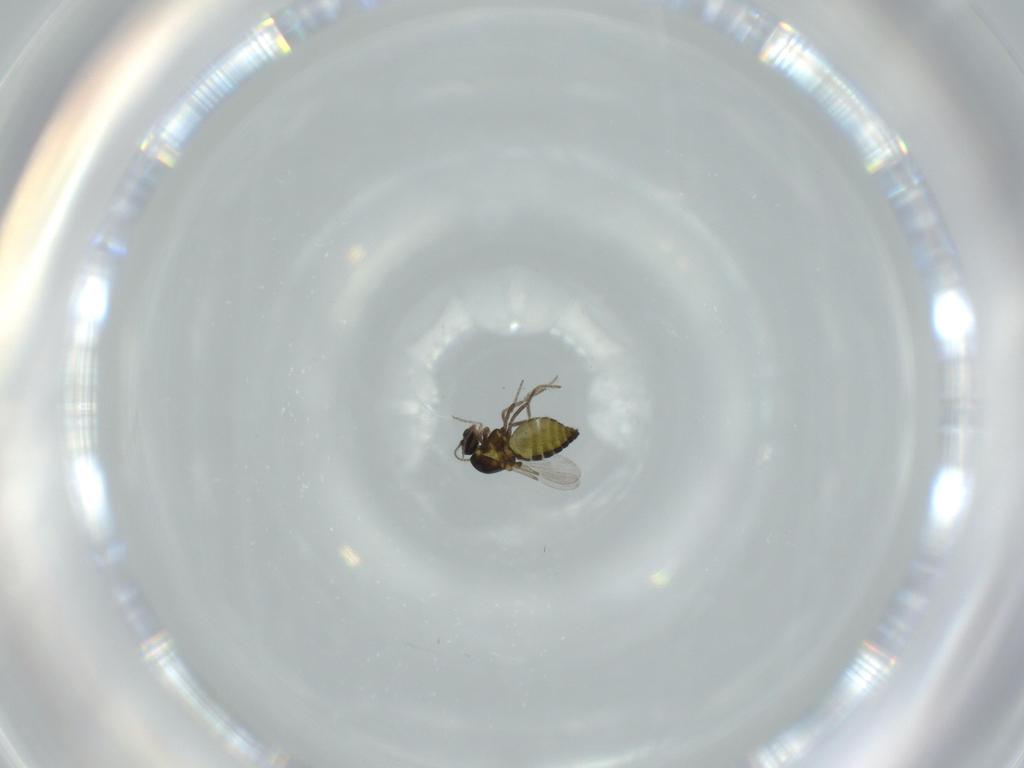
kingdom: Animalia
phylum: Arthropoda
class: Insecta
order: Diptera
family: Ceratopogonidae
